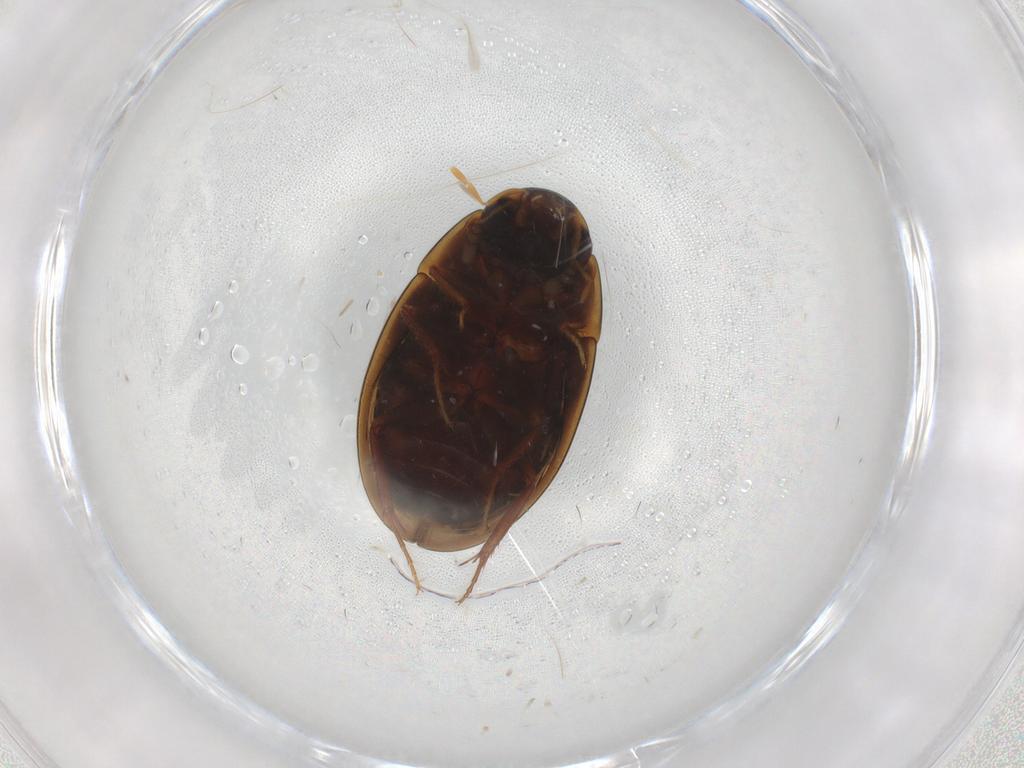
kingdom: Animalia
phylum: Arthropoda
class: Insecta
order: Coleoptera
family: Hydrophilidae
